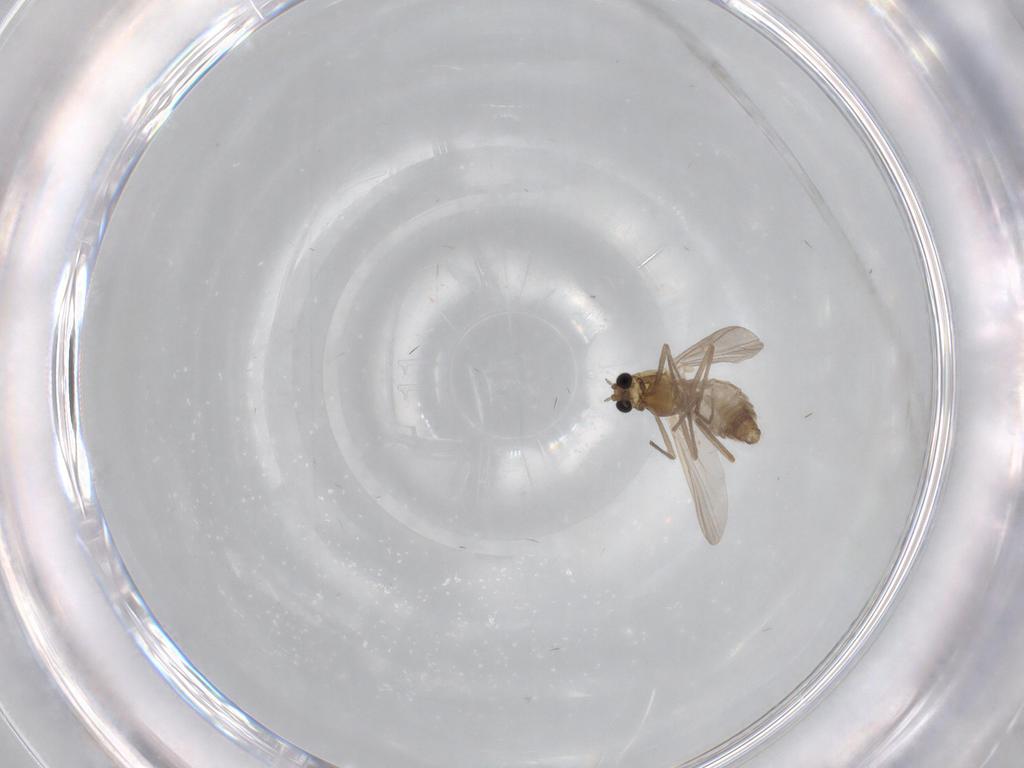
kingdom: Animalia
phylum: Arthropoda
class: Insecta
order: Diptera
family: Chironomidae
